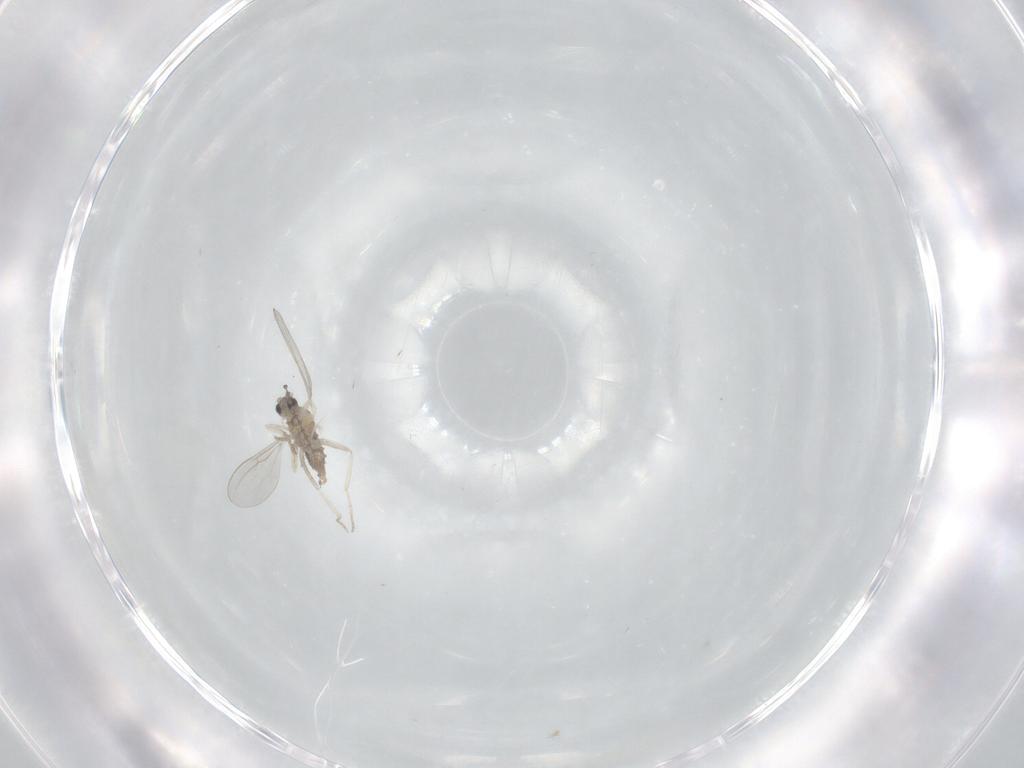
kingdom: Animalia
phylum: Arthropoda
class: Insecta
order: Diptera
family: Cecidomyiidae
